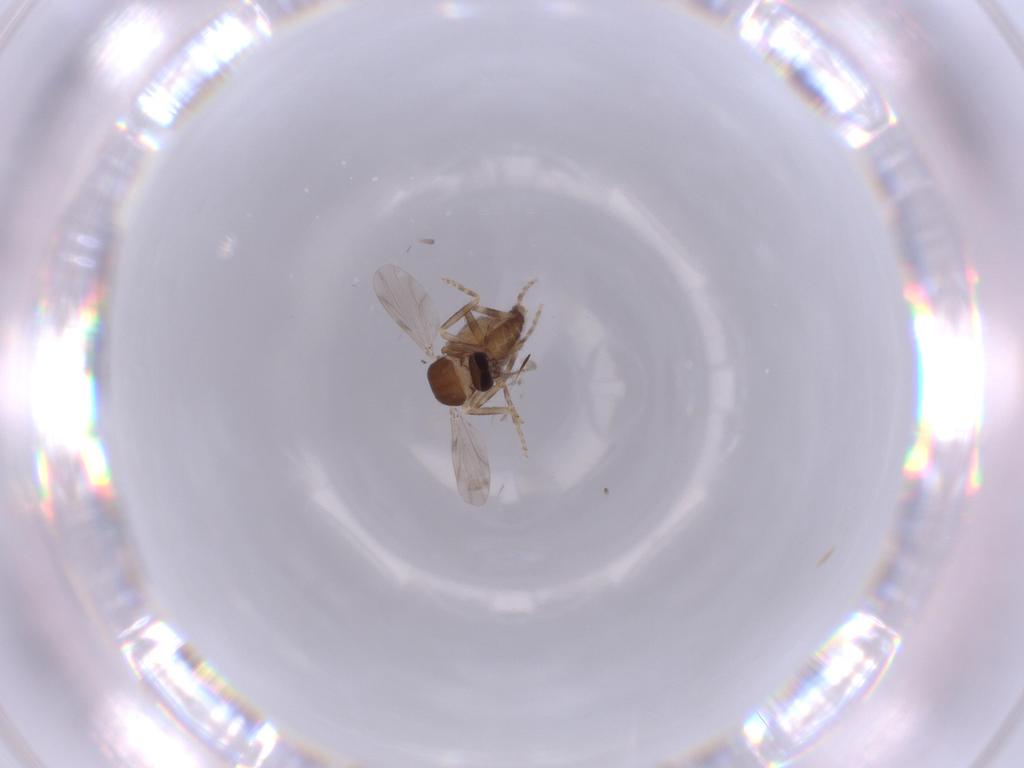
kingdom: Animalia
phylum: Arthropoda
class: Insecta
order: Diptera
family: Ceratopogonidae
